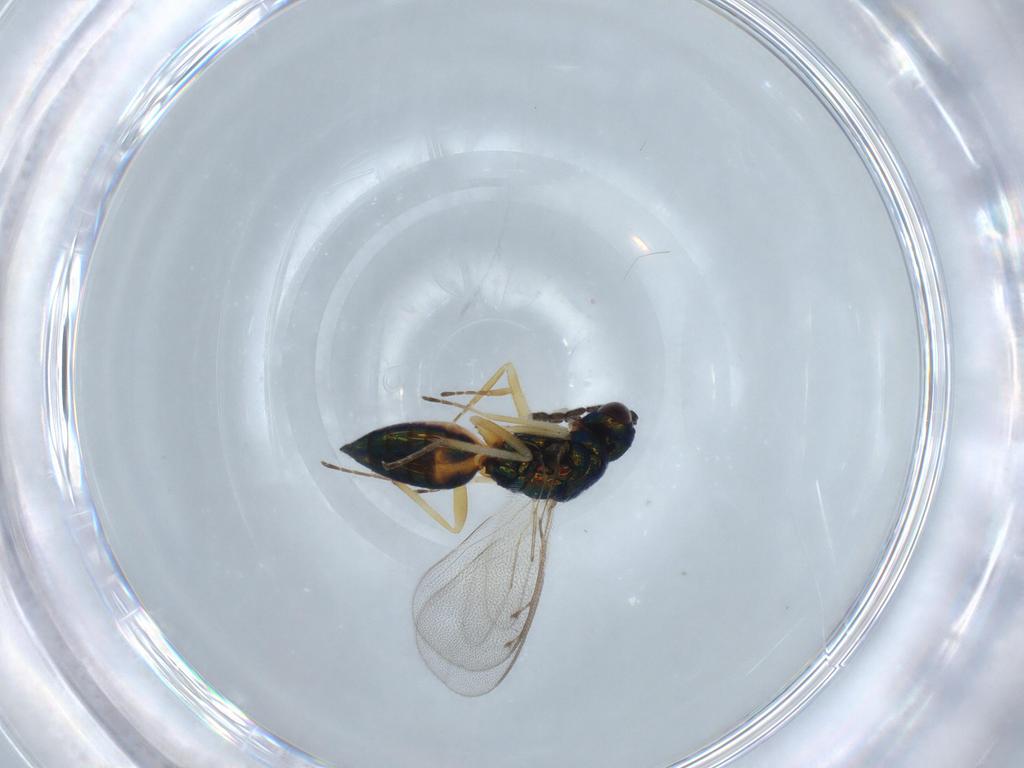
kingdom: Animalia
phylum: Arthropoda
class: Insecta
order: Hymenoptera
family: Eulophidae
